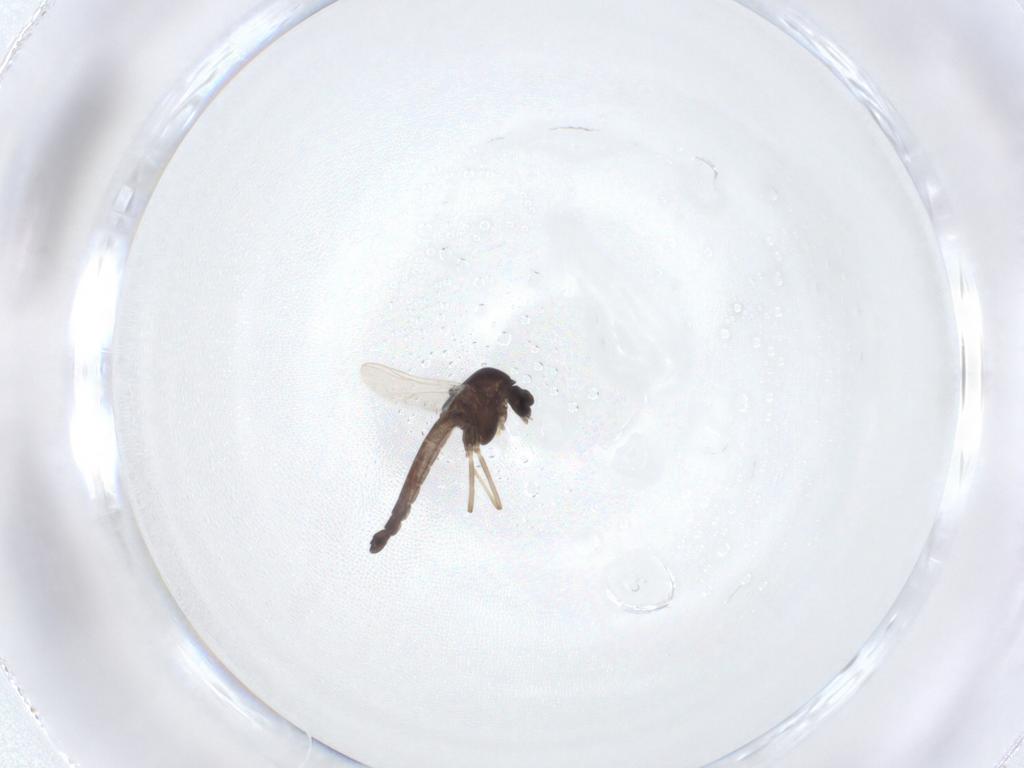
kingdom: Animalia
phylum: Arthropoda
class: Insecta
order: Diptera
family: Chironomidae
